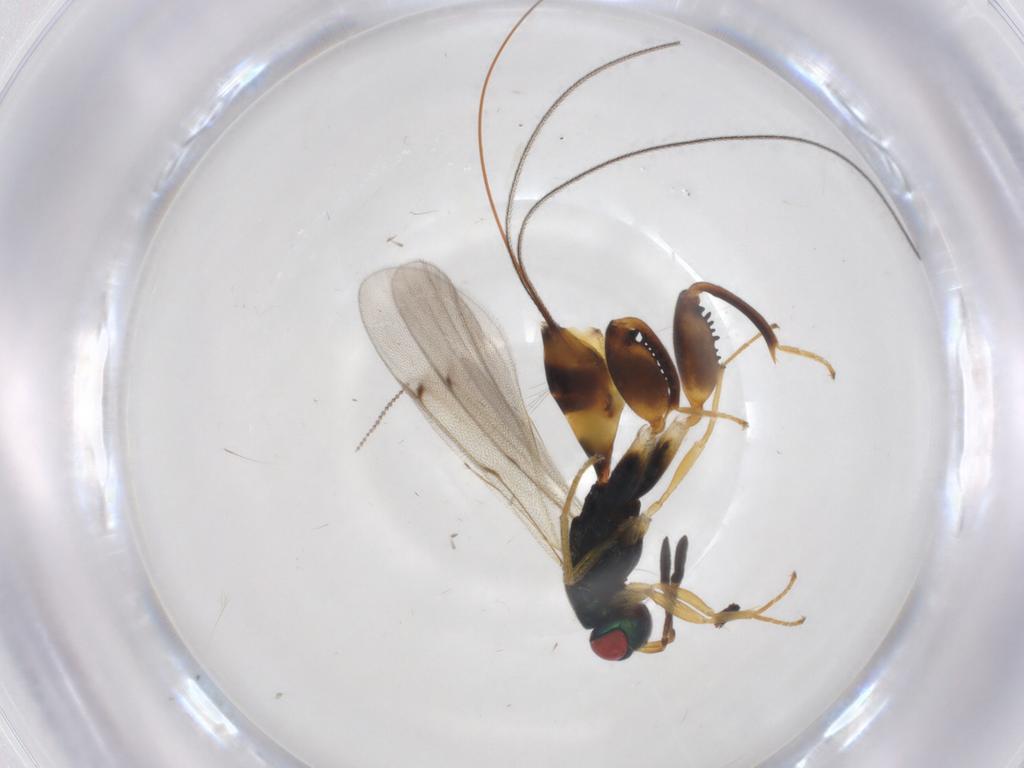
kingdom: Animalia
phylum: Arthropoda
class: Insecta
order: Hymenoptera
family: Torymidae
